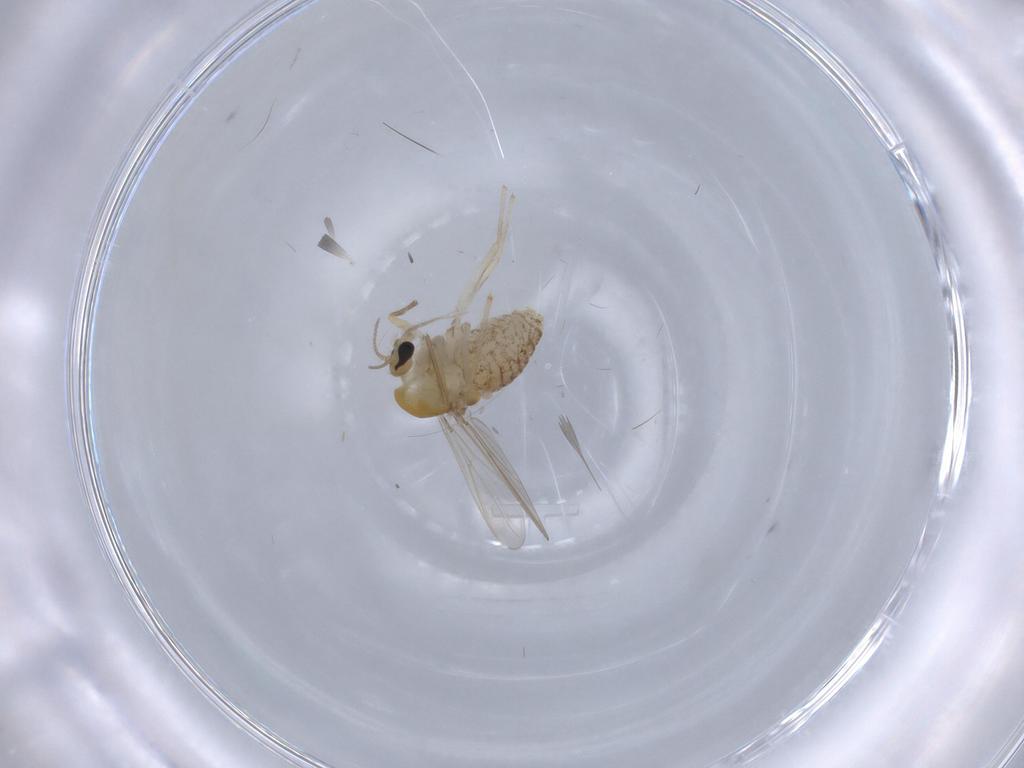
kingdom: Animalia
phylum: Arthropoda
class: Insecta
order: Diptera
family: Chironomidae
